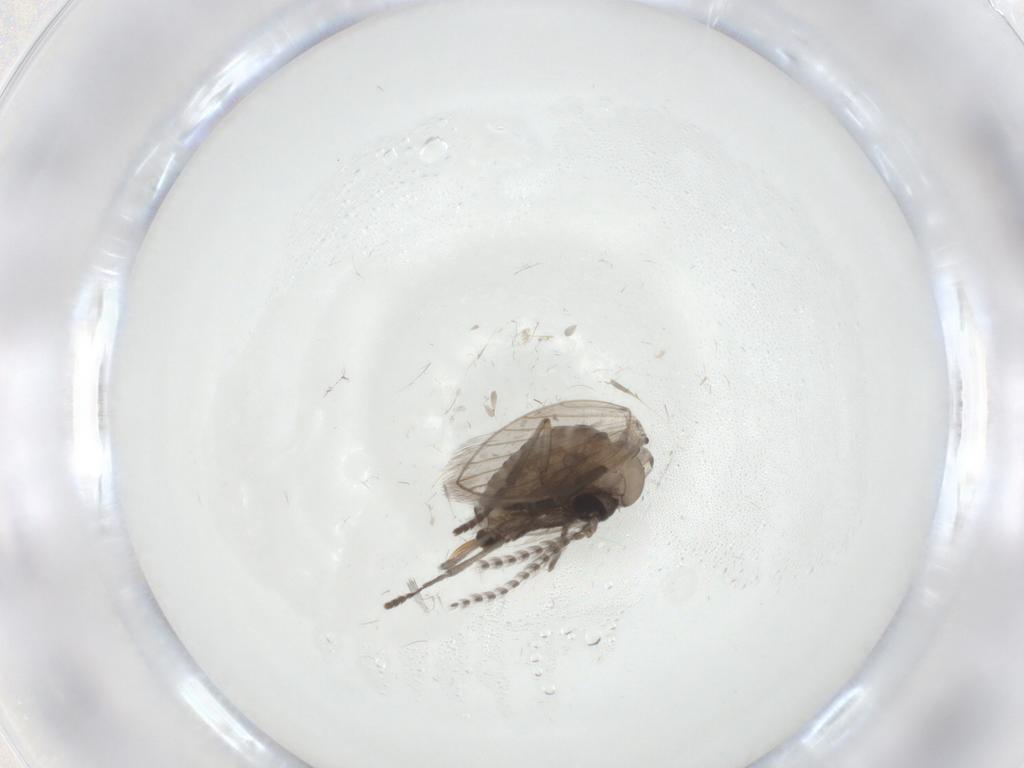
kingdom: Animalia
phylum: Arthropoda
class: Insecta
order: Diptera
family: Psychodidae
